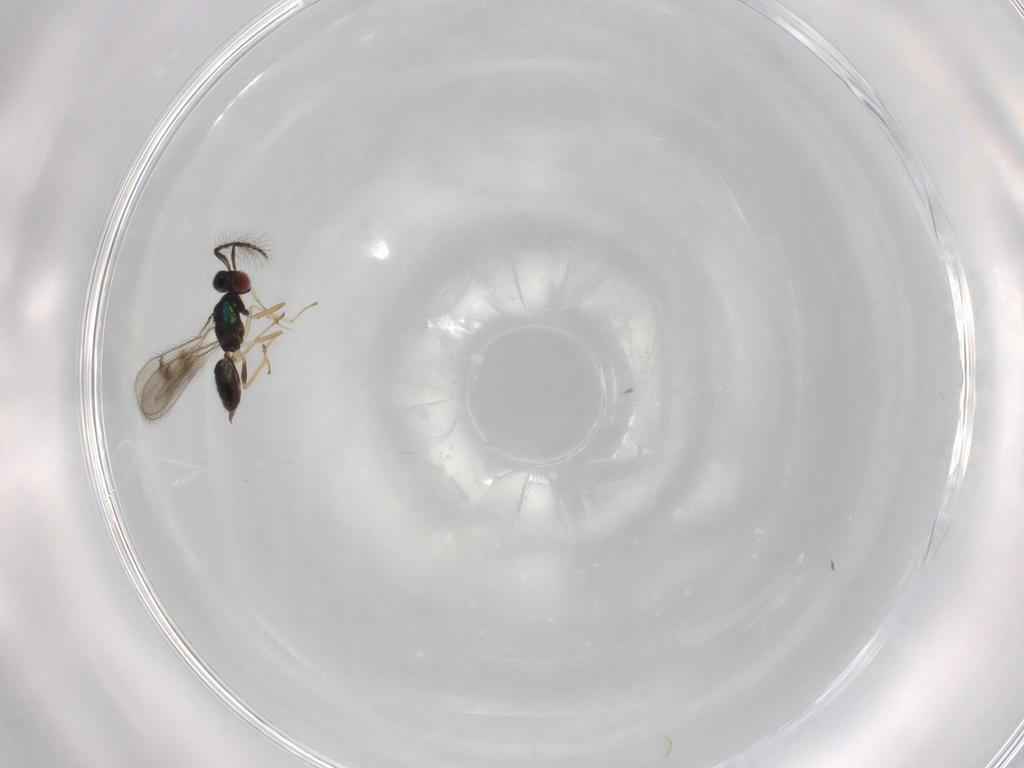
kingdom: Animalia
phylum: Arthropoda
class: Insecta
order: Hymenoptera
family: Eulophidae
